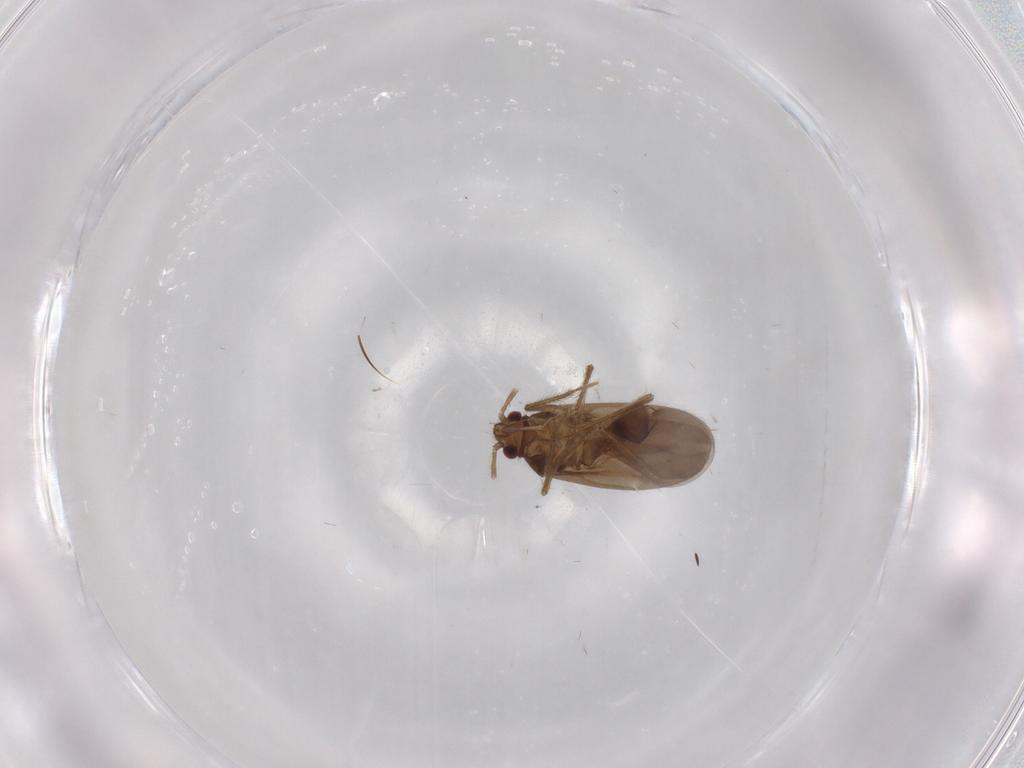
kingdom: Animalia
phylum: Arthropoda
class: Insecta
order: Hemiptera
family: Ceratocombidae
